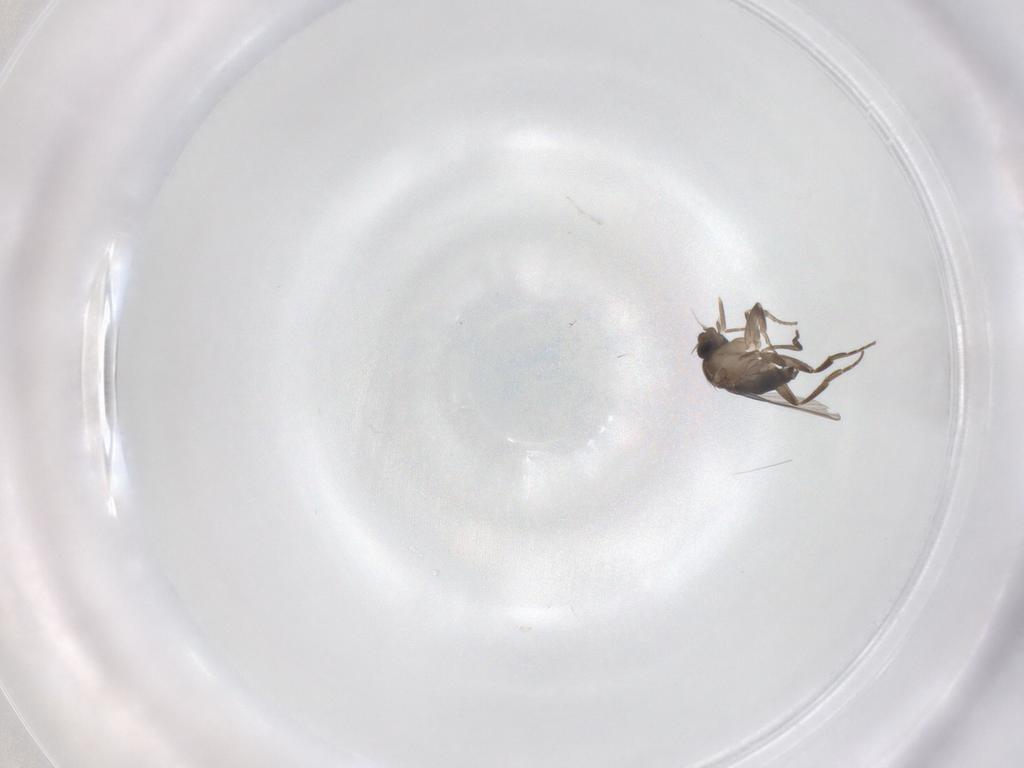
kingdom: Animalia
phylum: Arthropoda
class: Insecta
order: Diptera
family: Phoridae
